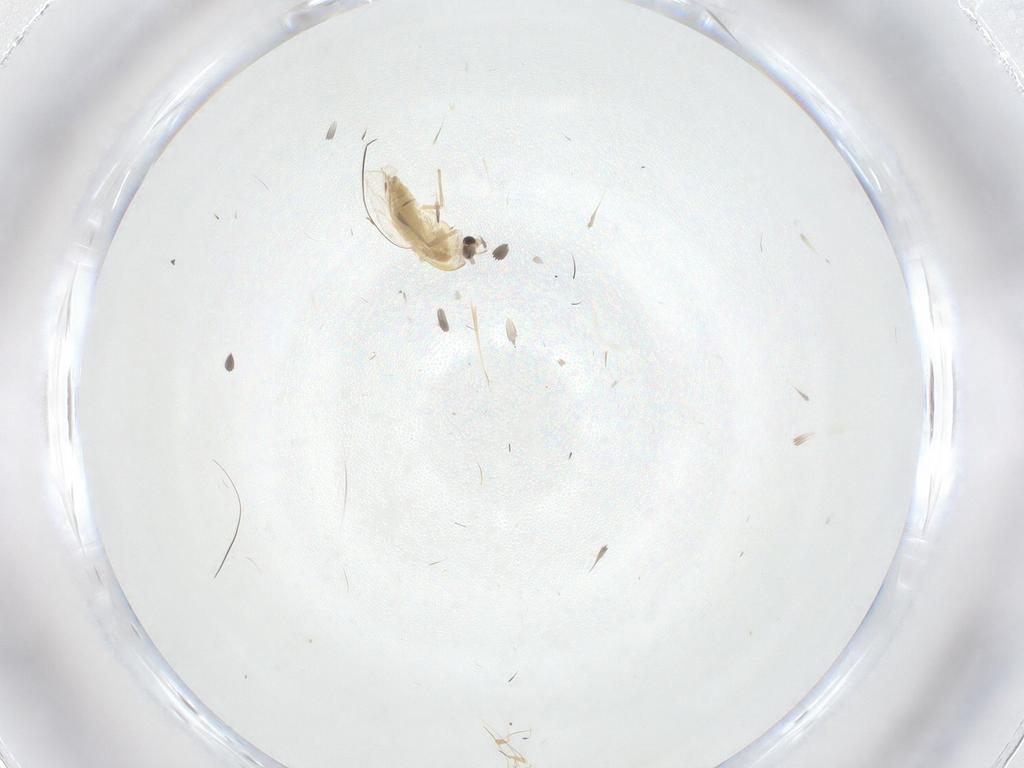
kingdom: Animalia
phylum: Arthropoda
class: Insecta
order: Diptera
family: Chironomidae
